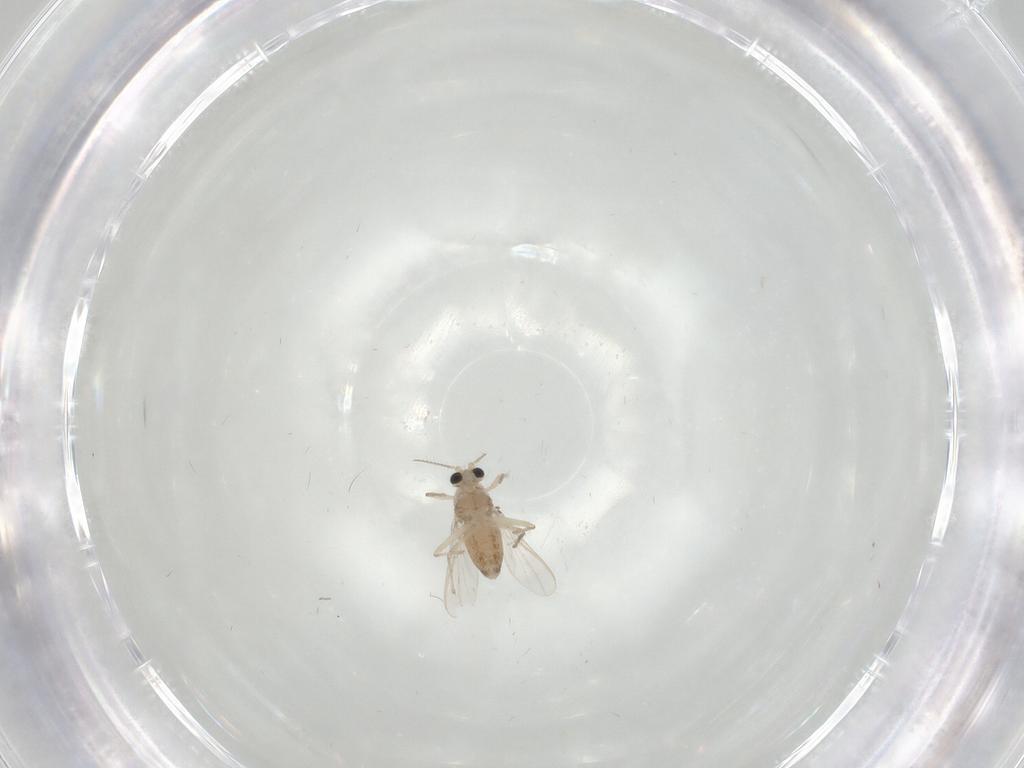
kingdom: Animalia
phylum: Arthropoda
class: Insecta
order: Diptera
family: Chironomidae
